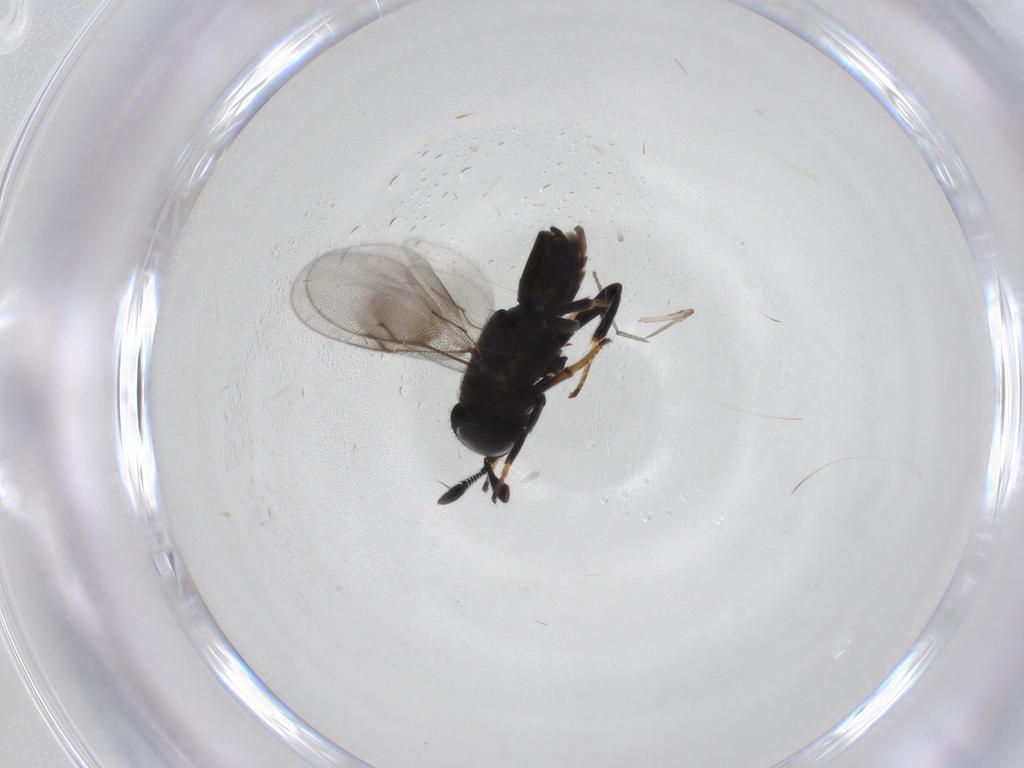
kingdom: Animalia
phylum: Arthropoda
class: Insecta
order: Hymenoptera
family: Encyrtidae
